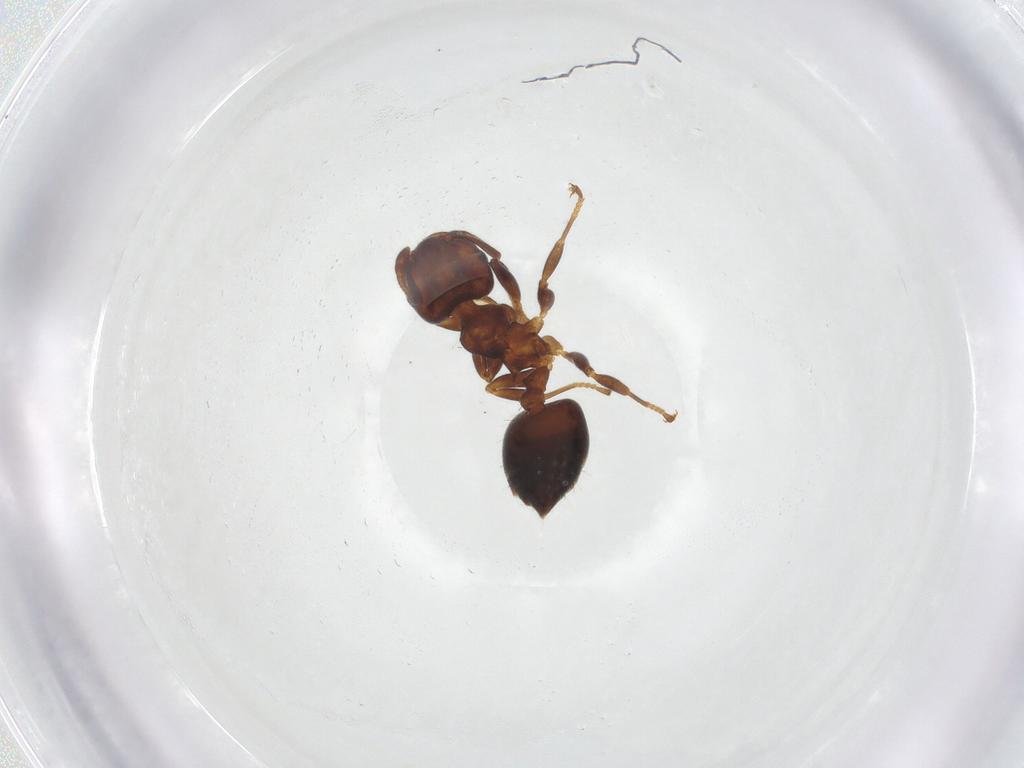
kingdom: Animalia
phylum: Arthropoda
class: Insecta
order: Hymenoptera
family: Formicidae
